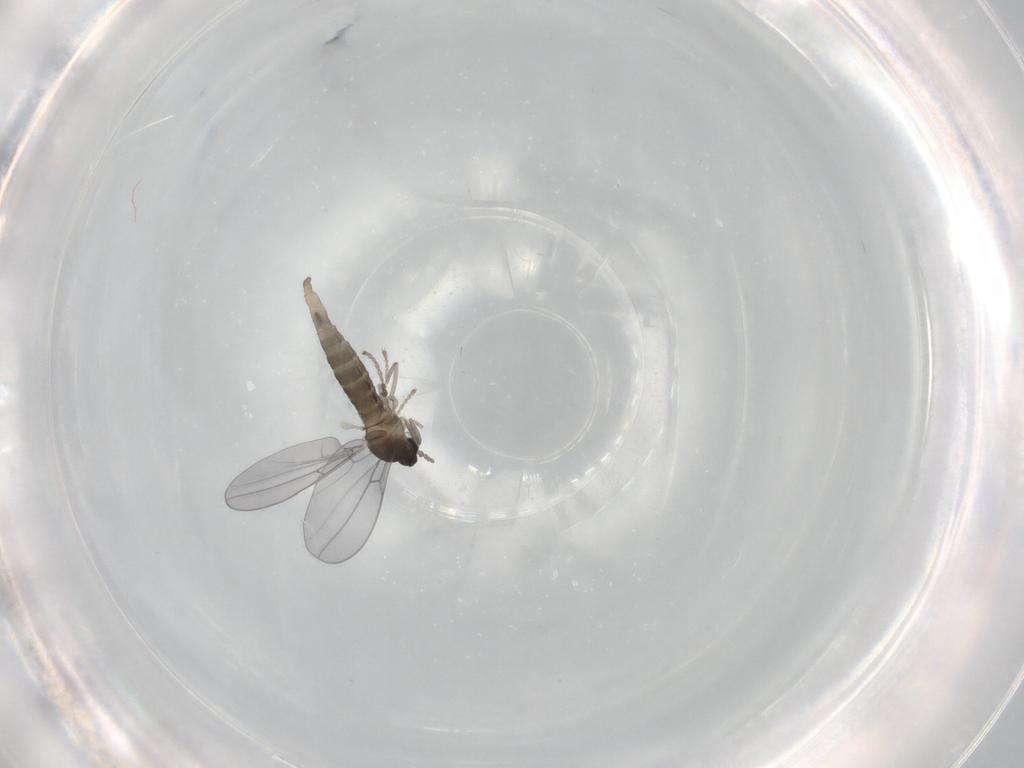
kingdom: Animalia
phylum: Arthropoda
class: Insecta
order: Diptera
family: Cecidomyiidae
